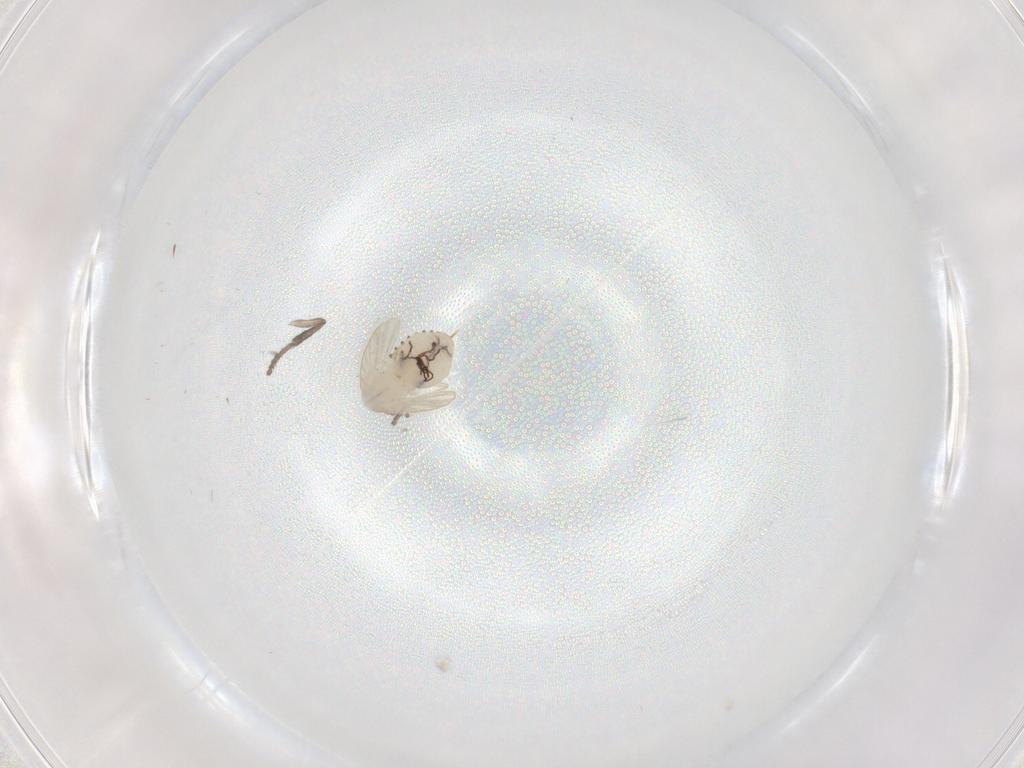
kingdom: Animalia
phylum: Arthropoda
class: Insecta
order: Diptera
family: Psychodidae
